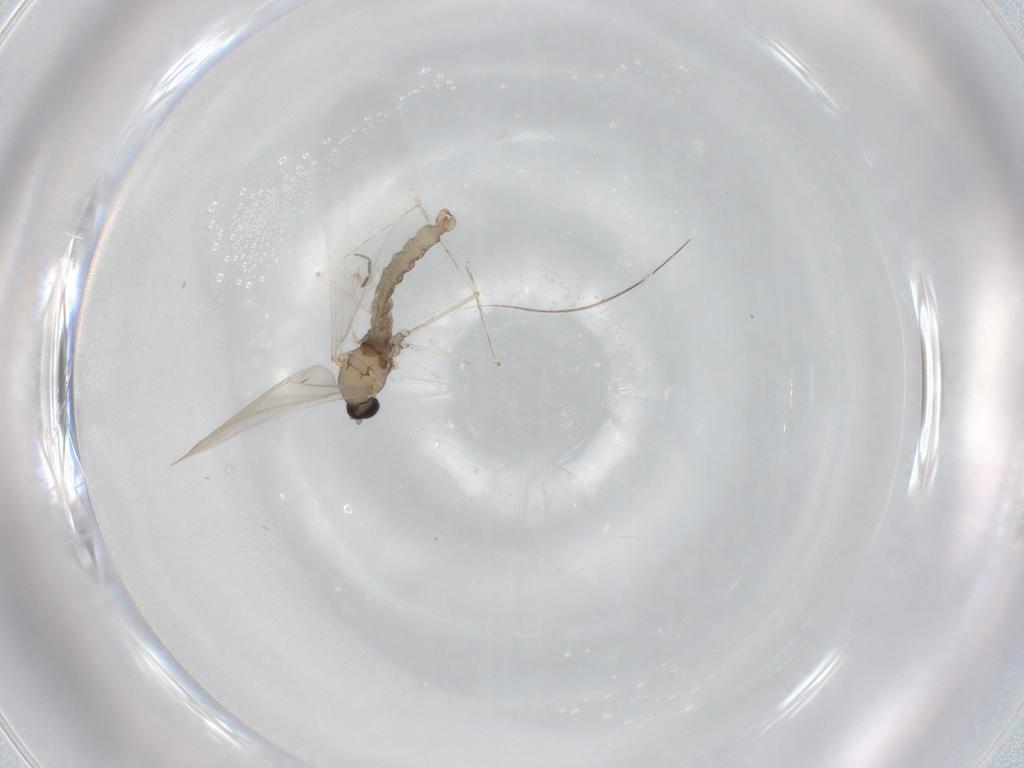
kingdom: Animalia
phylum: Arthropoda
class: Insecta
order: Diptera
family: Cecidomyiidae
